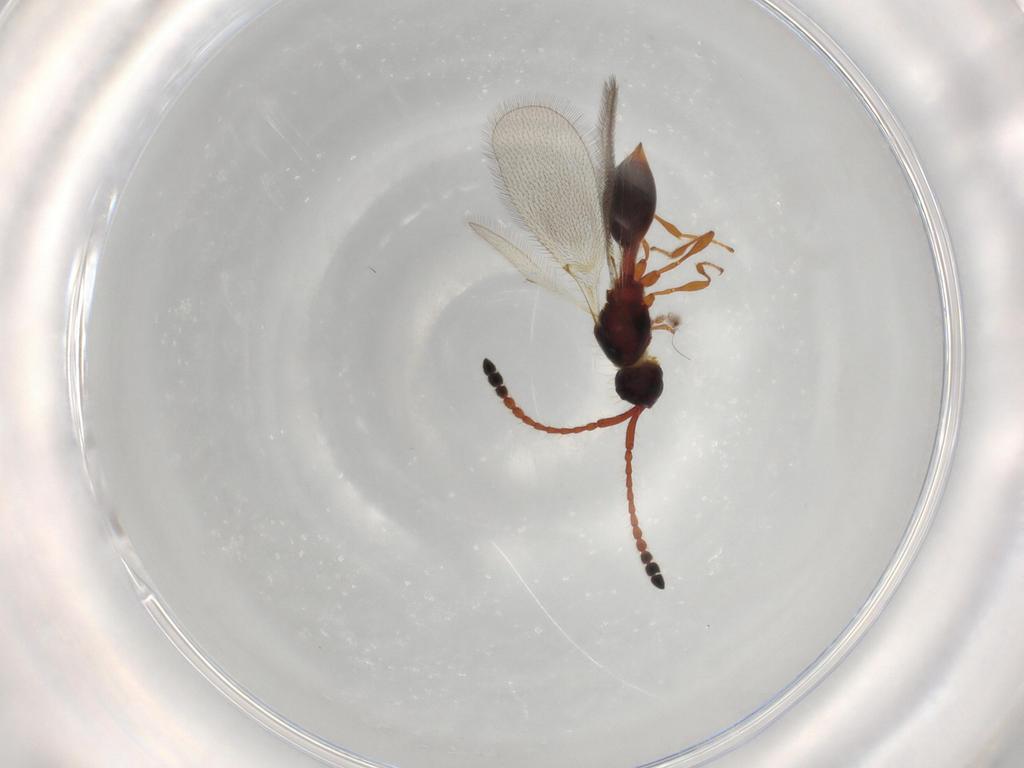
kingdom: Animalia
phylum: Arthropoda
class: Insecta
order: Hymenoptera
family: Diapriidae
